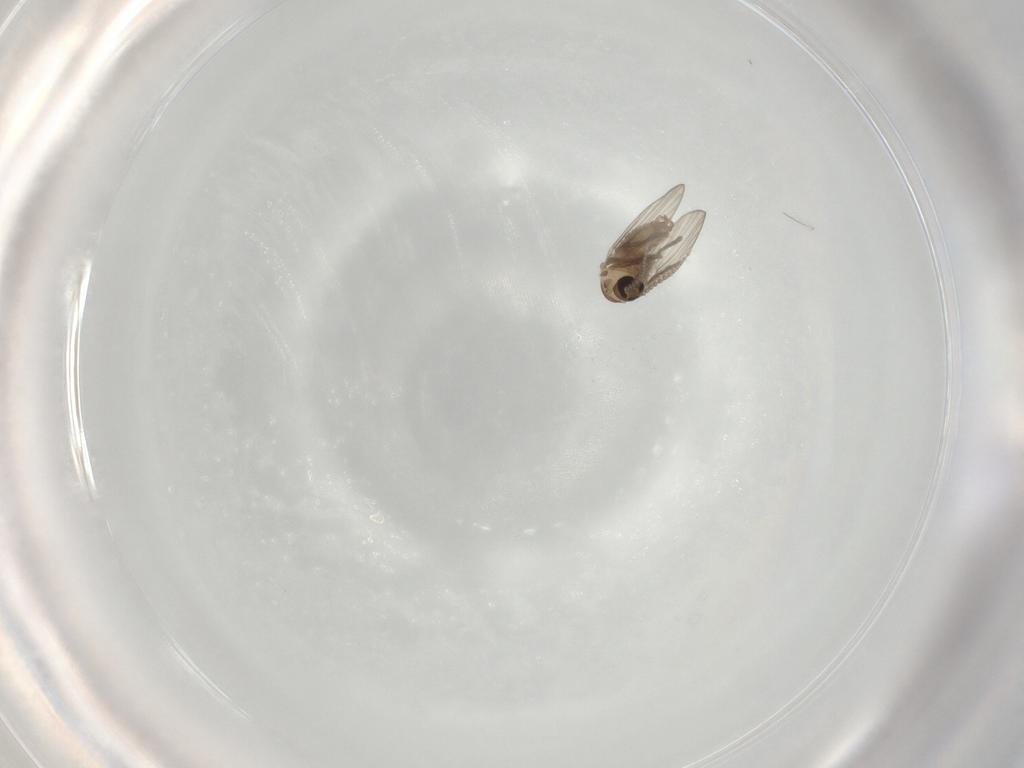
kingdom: Animalia
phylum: Arthropoda
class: Insecta
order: Diptera
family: Psychodidae
